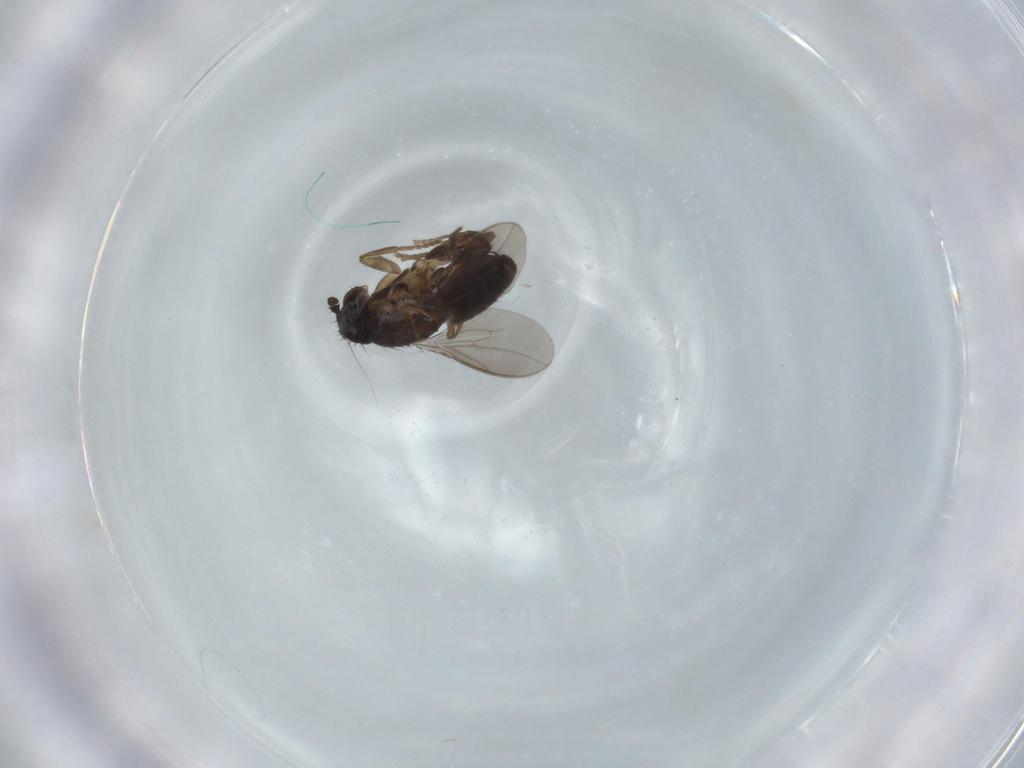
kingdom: Animalia
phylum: Arthropoda
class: Insecta
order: Diptera
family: Sphaeroceridae
